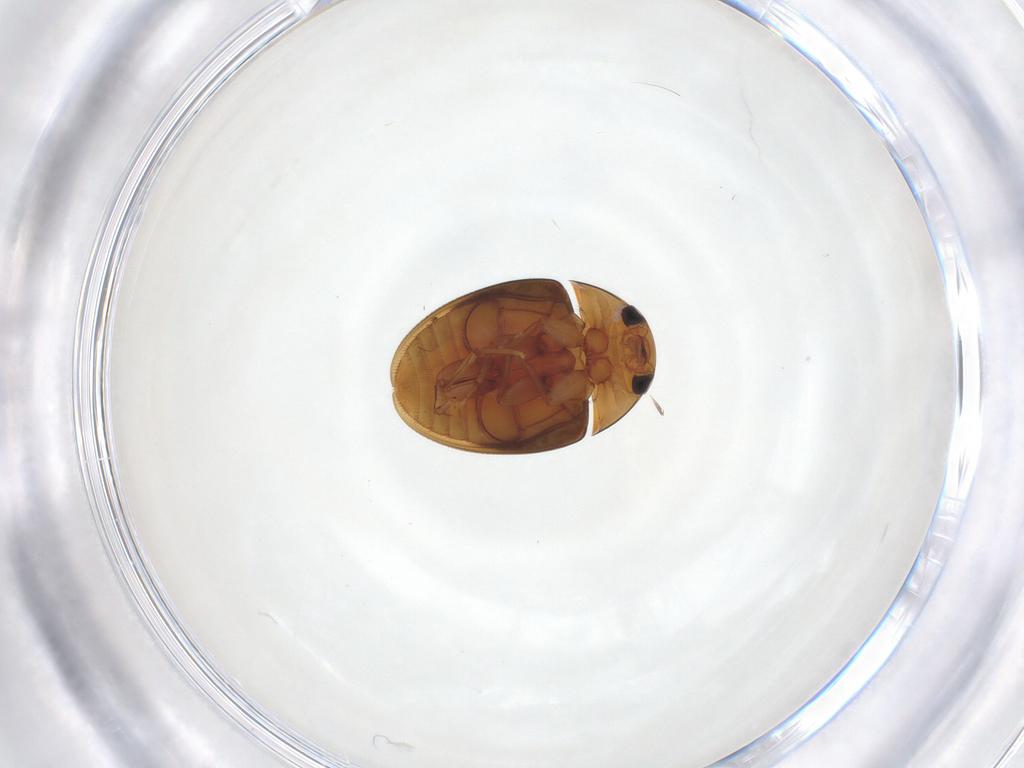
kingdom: Animalia
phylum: Arthropoda
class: Insecta
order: Coleoptera
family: Phalacridae
